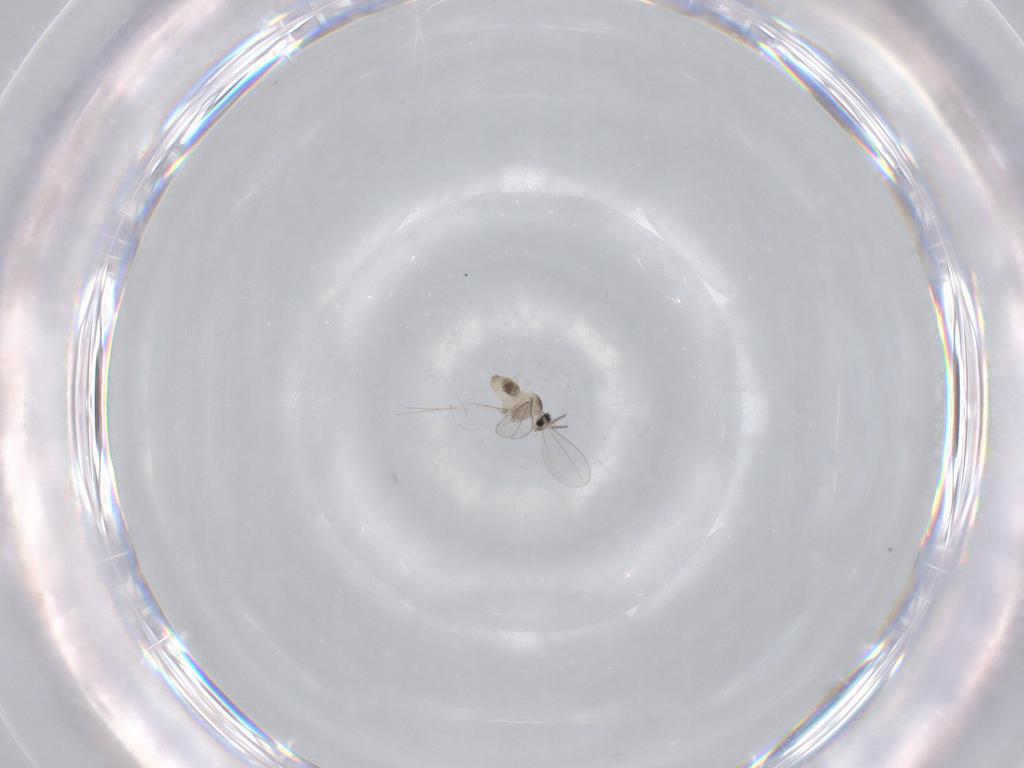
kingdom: Animalia
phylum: Arthropoda
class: Insecta
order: Diptera
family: Cecidomyiidae
